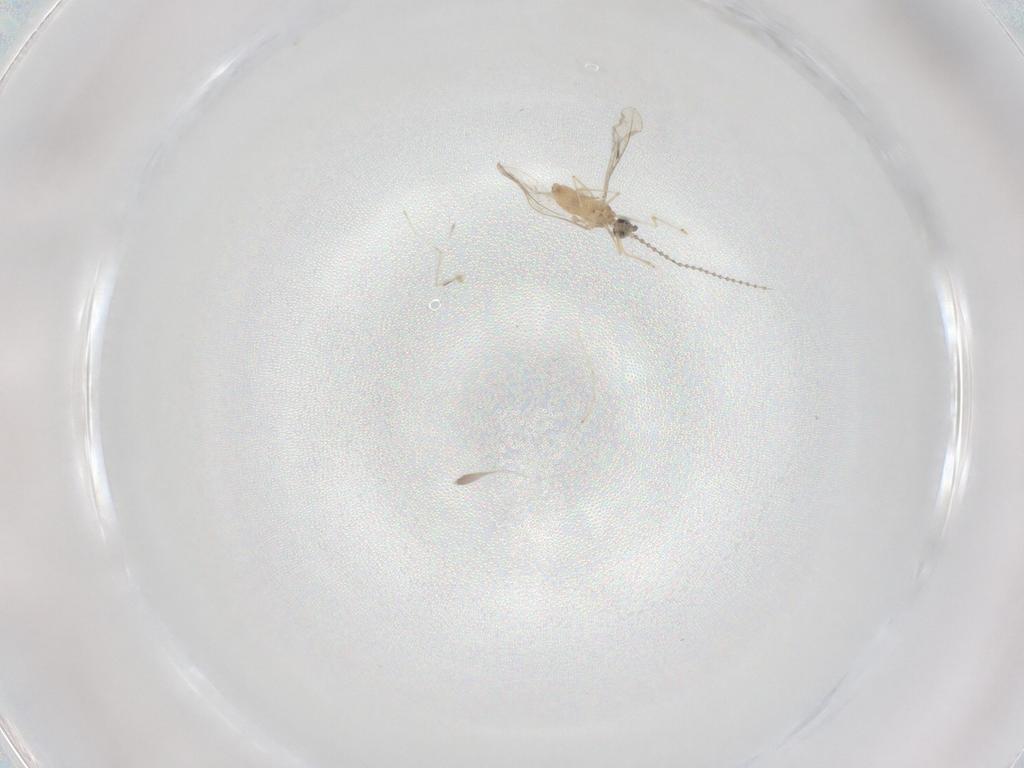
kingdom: Animalia
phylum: Arthropoda
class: Insecta
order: Diptera
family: Cecidomyiidae
